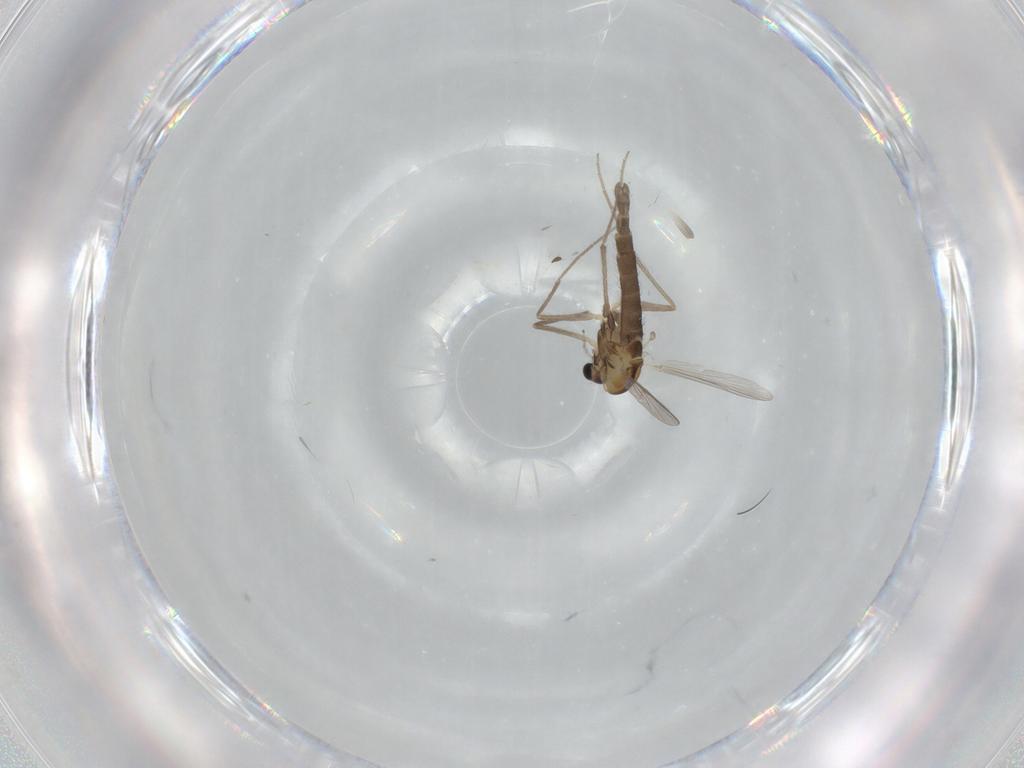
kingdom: Animalia
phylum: Arthropoda
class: Insecta
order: Diptera
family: Chironomidae
